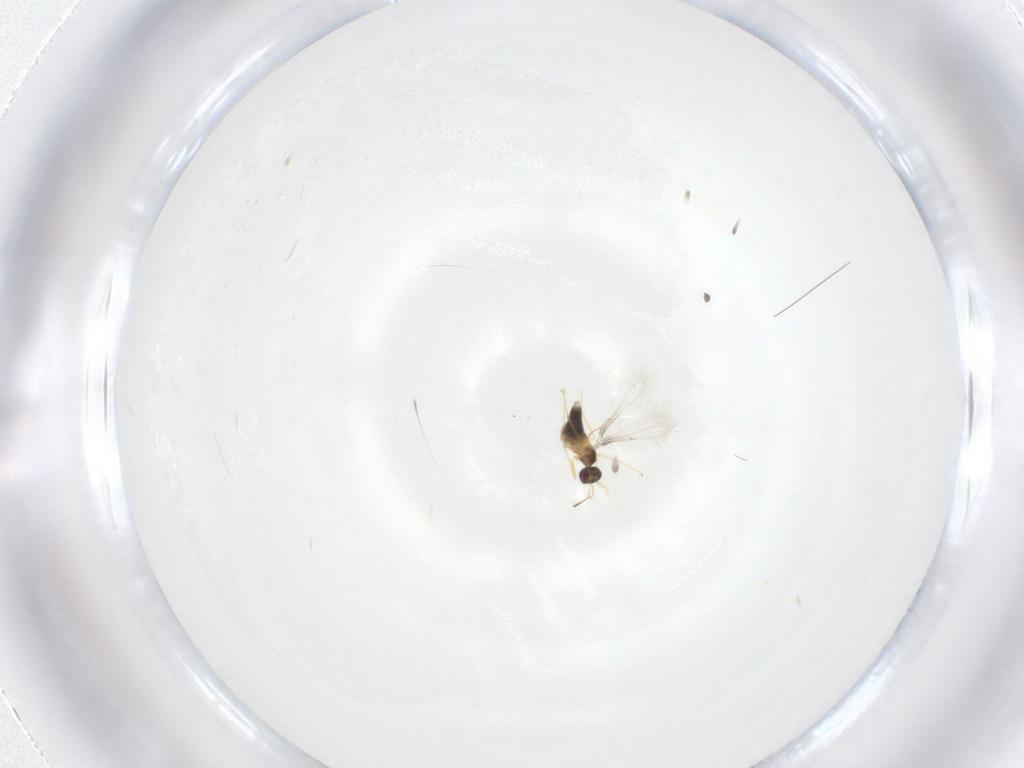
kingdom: Animalia
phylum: Arthropoda
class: Insecta
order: Hymenoptera
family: Mymaridae
